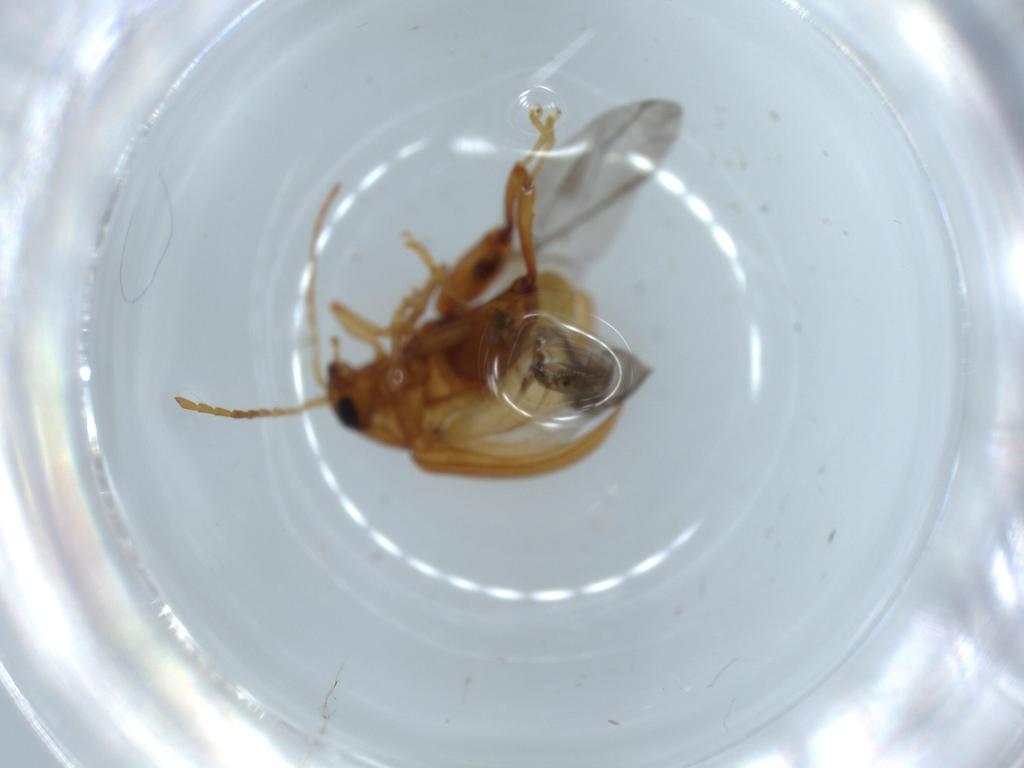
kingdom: Animalia
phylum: Arthropoda
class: Insecta
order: Coleoptera
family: Chrysomelidae
